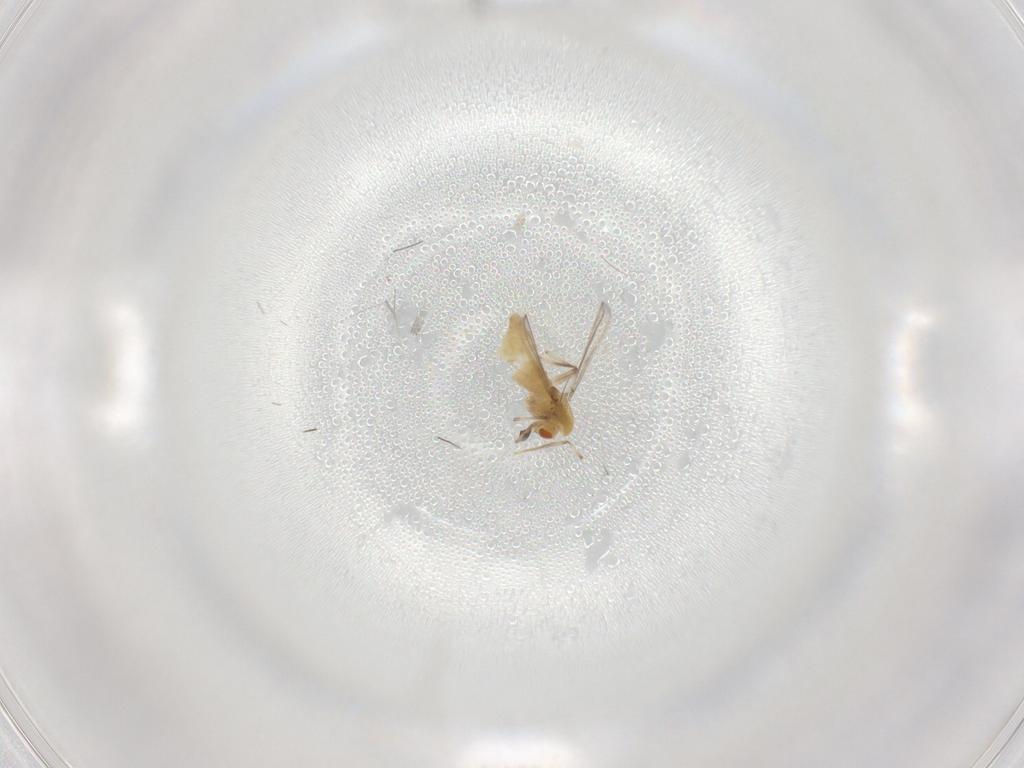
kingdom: Animalia
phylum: Arthropoda
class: Insecta
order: Diptera
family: Chironomidae
